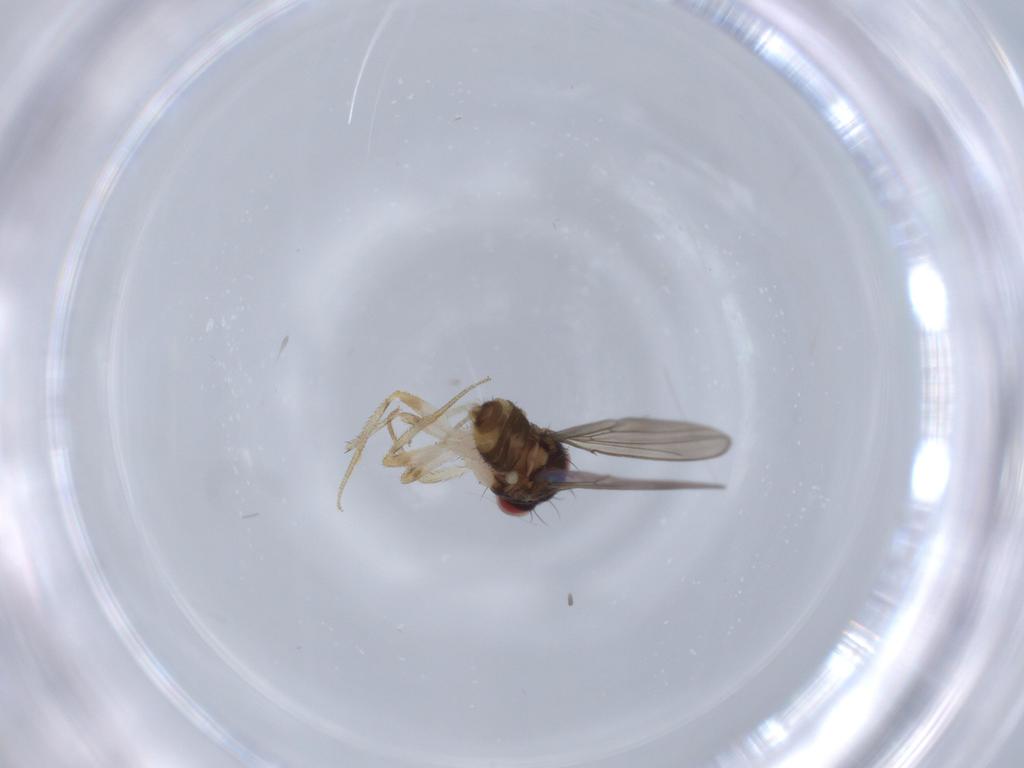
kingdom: Animalia
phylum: Arthropoda
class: Insecta
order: Diptera
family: Drosophilidae
